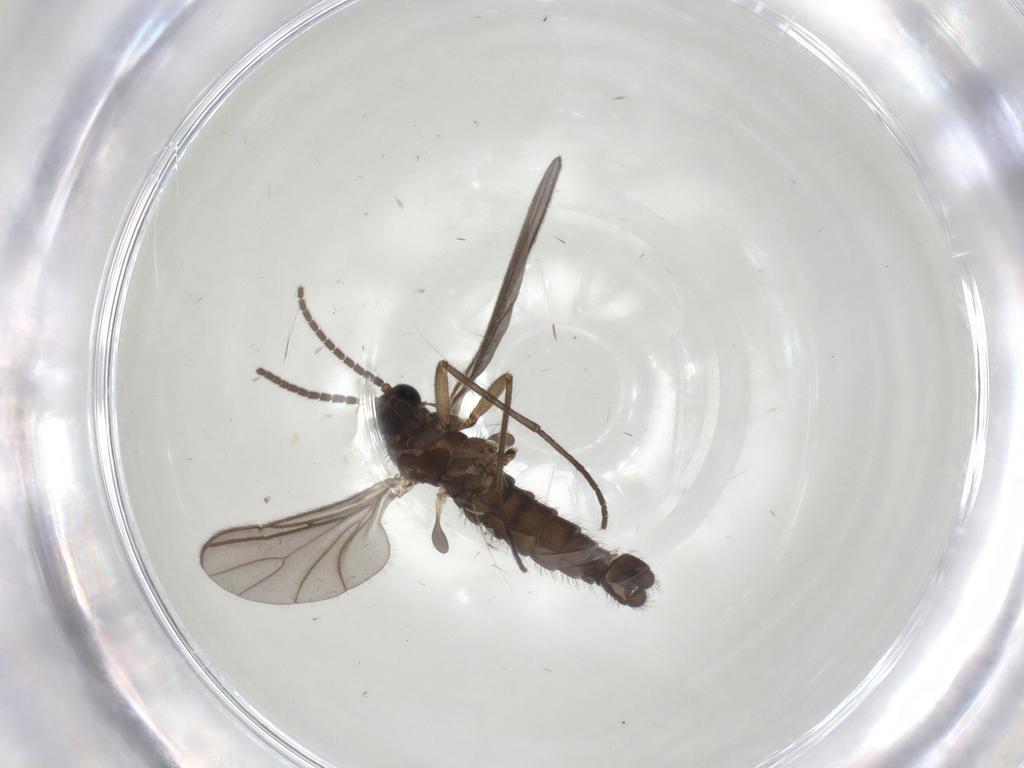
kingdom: Animalia
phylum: Arthropoda
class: Insecta
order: Diptera
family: Sciaridae
